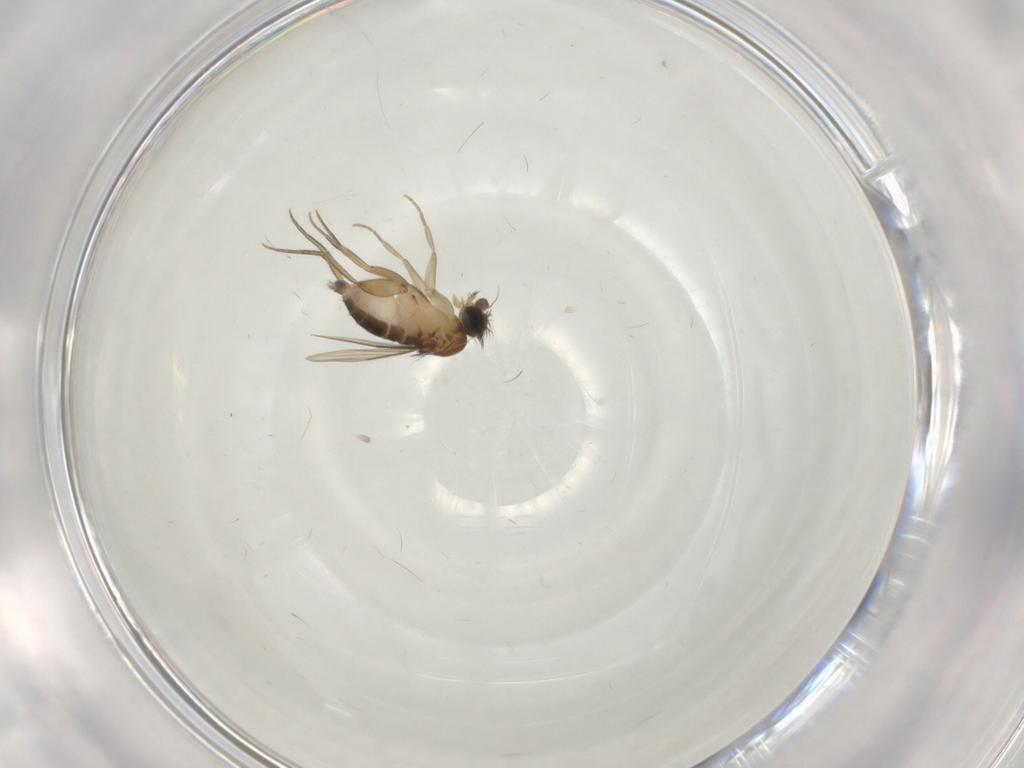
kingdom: Animalia
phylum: Arthropoda
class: Insecta
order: Diptera
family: Phoridae
